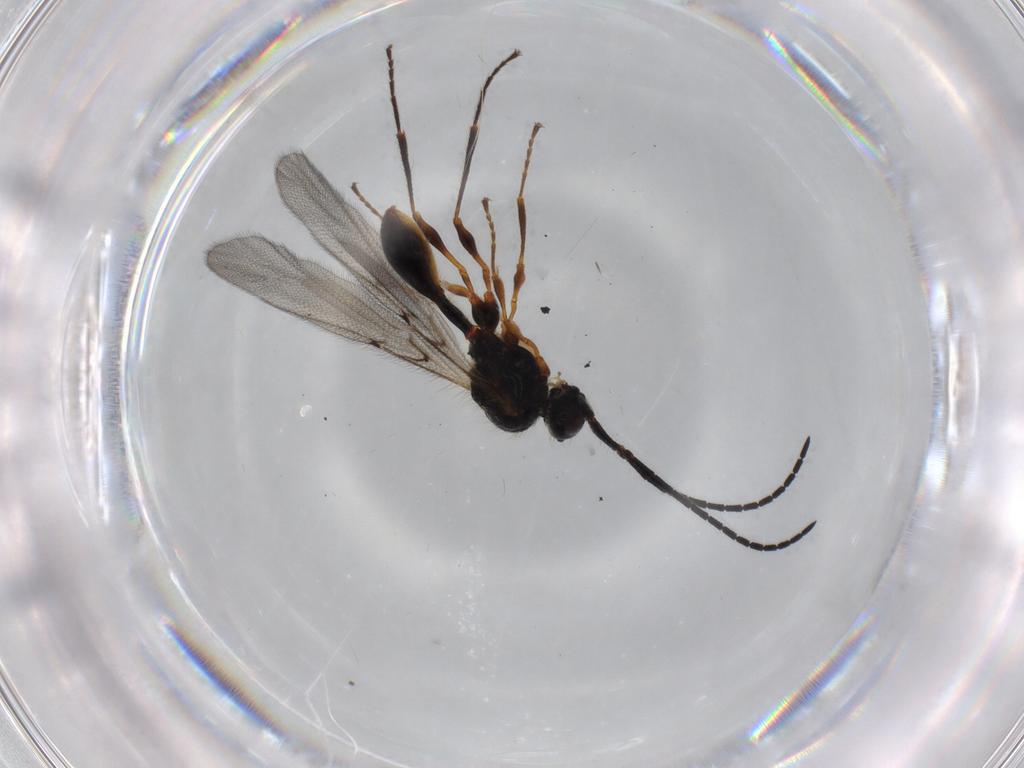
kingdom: Animalia
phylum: Arthropoda
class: Insecta
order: Hymenoptera
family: Diapriidae
